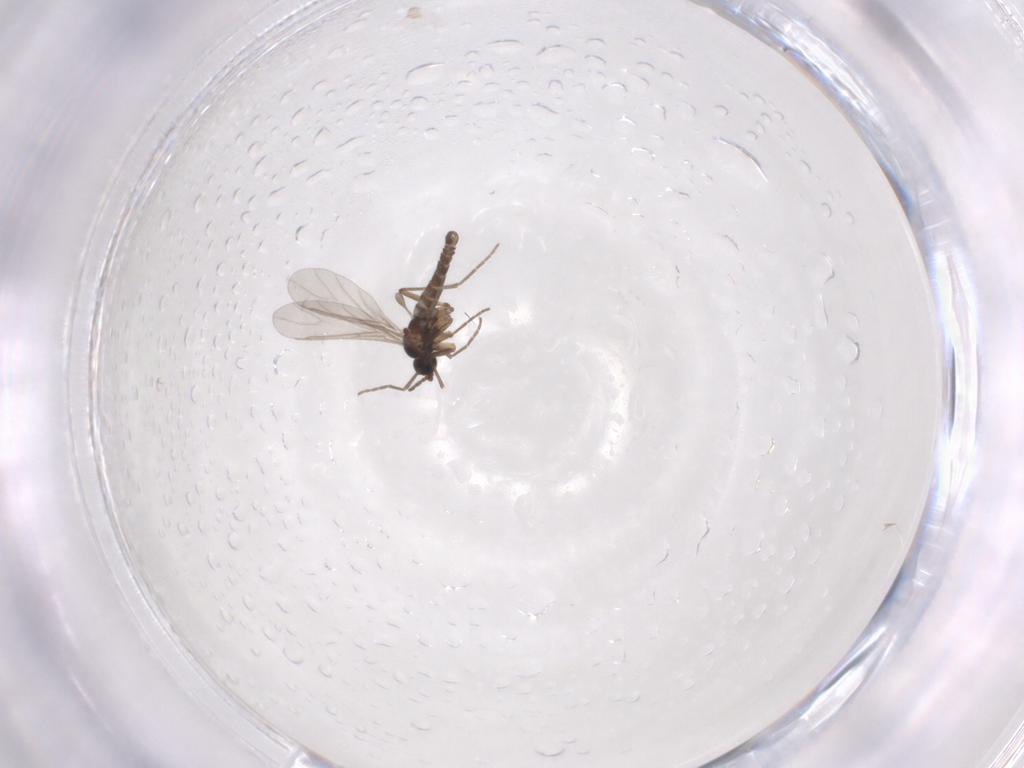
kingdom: Animalia
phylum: Arthropoda
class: Insecta
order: Diptera
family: Sciaridae
